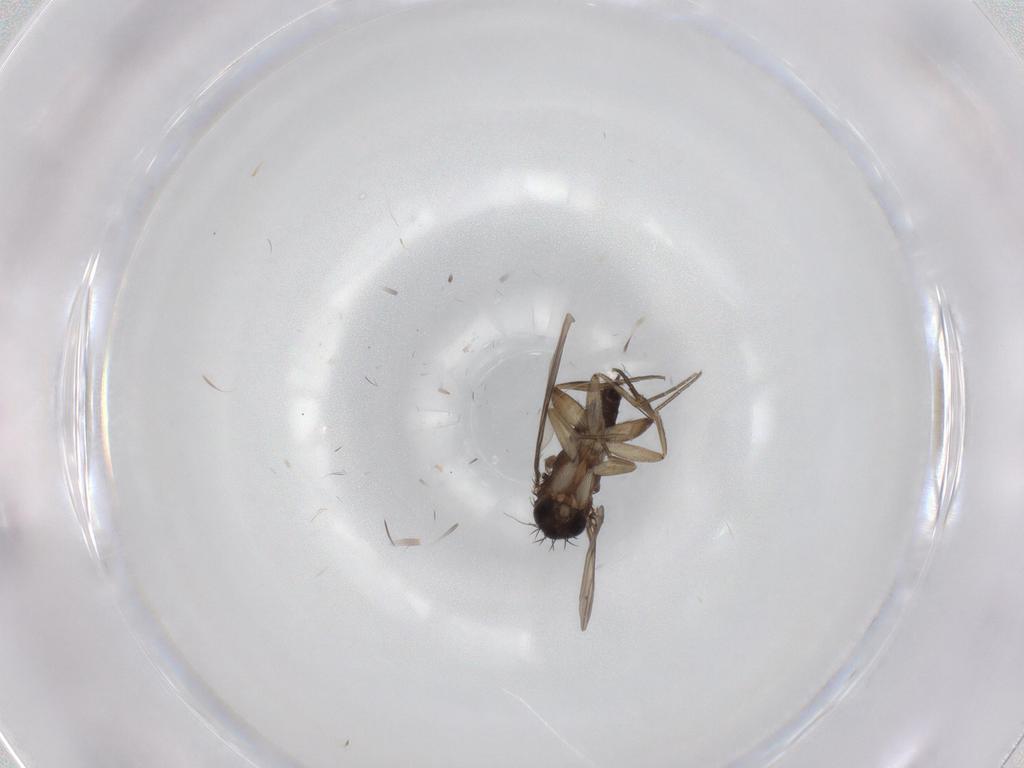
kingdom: Animalia
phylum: Arthropoda
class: Insecta
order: Diptera
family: Limoniidae
